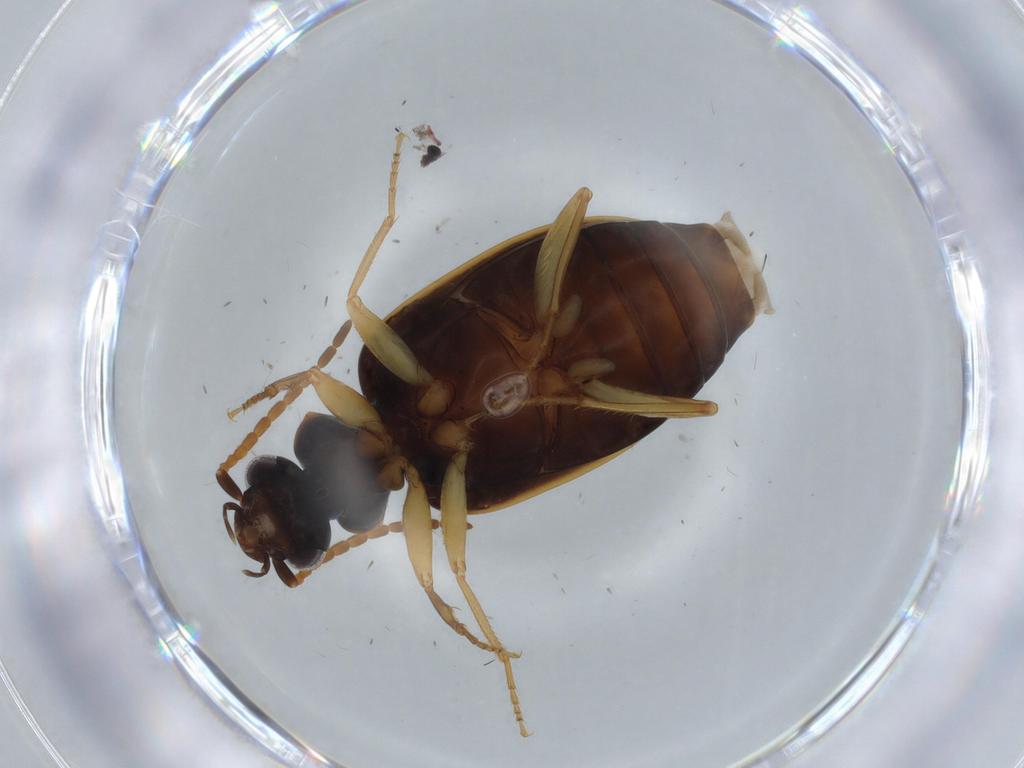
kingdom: Animalia
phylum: Arthropoda
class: Insecta
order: Coleoptera
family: Carabidae
